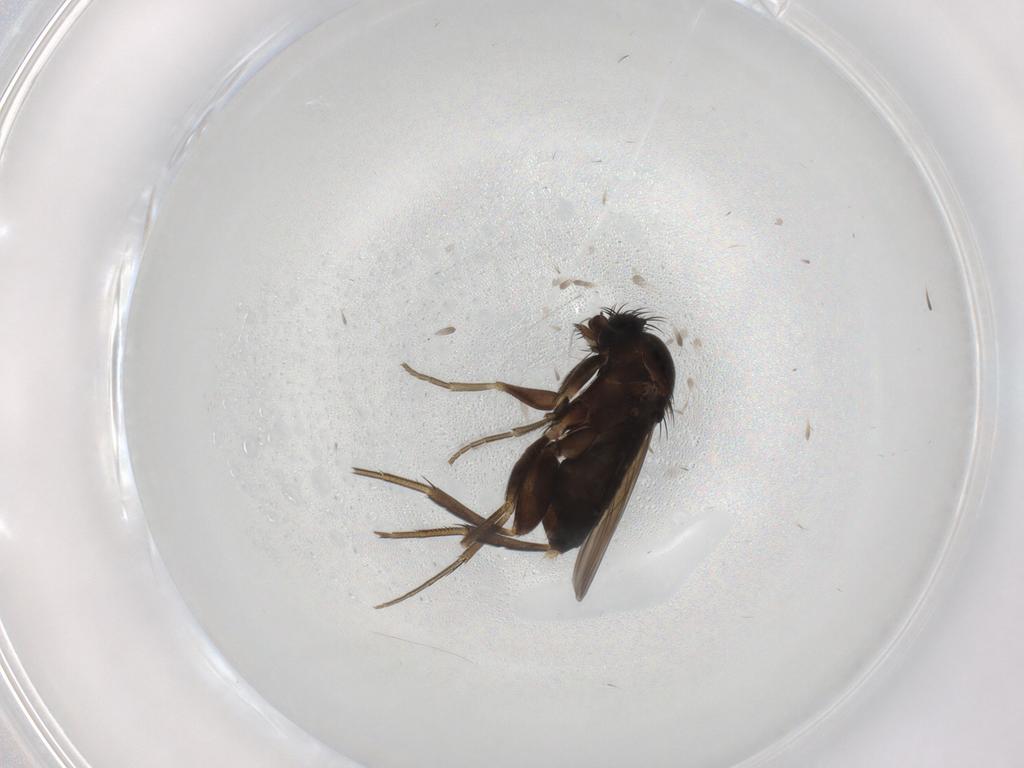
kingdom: Animalia
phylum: Arthropoda
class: Insecta
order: Diptera
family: Phoridae
